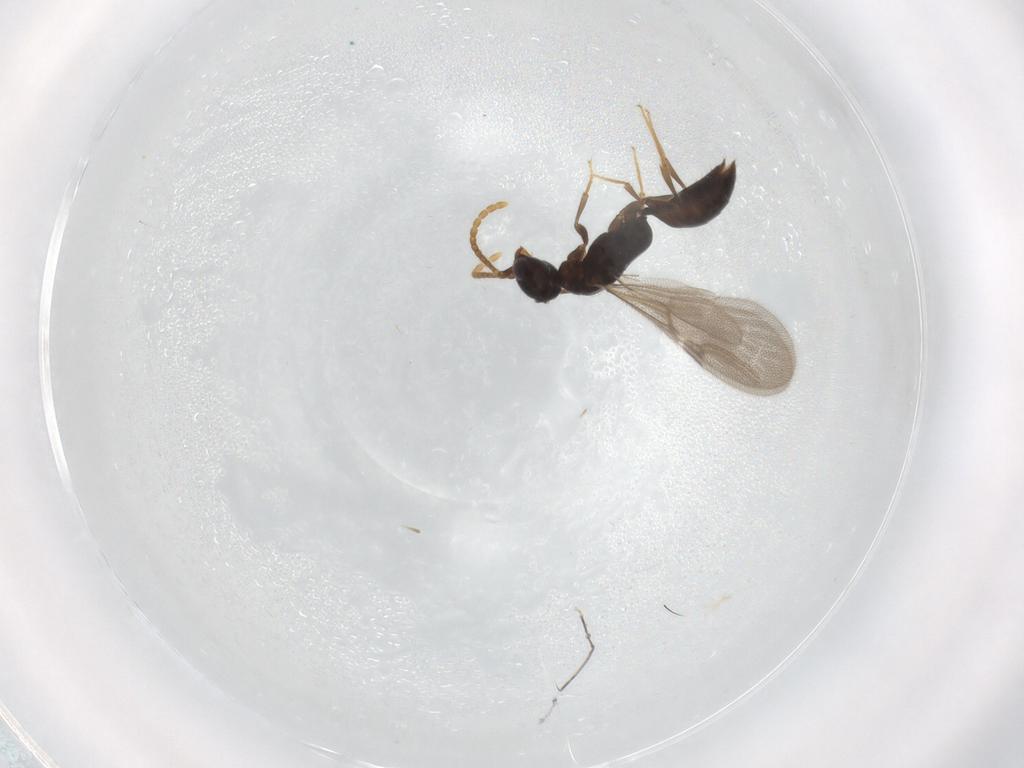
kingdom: Animalia
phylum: Arthropoda
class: Insecta
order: Hymenoptera
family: Bethylidae
